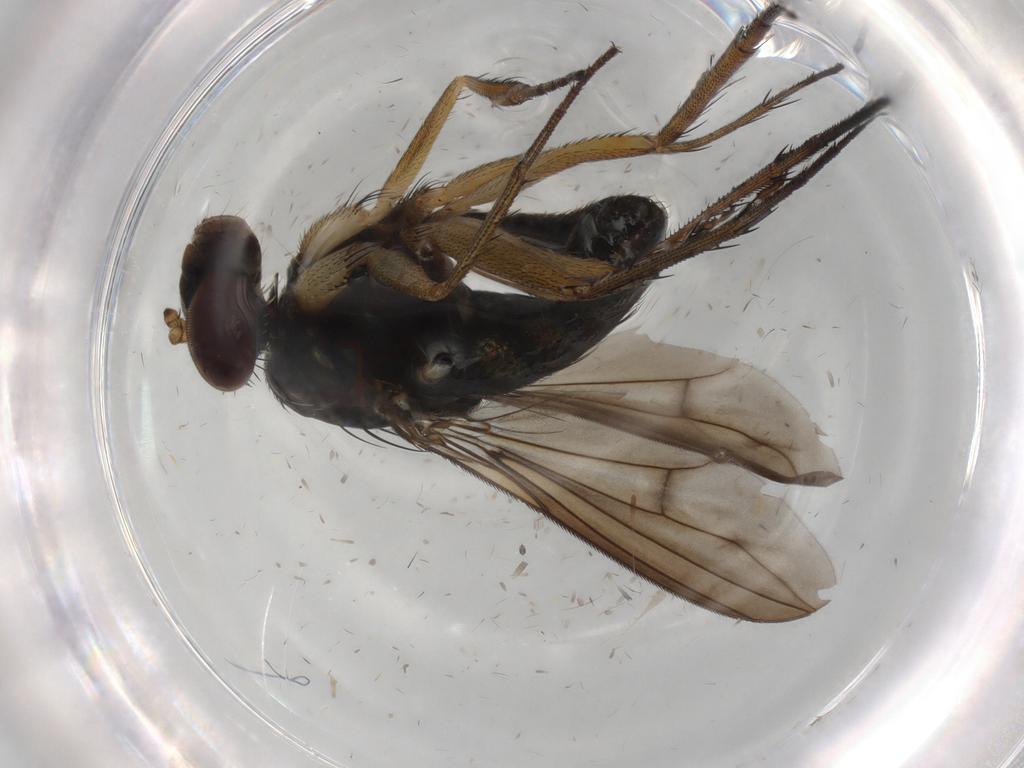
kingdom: Animalia
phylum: Arthropoda
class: Insecta
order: Diptera
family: Dolichopodidae
